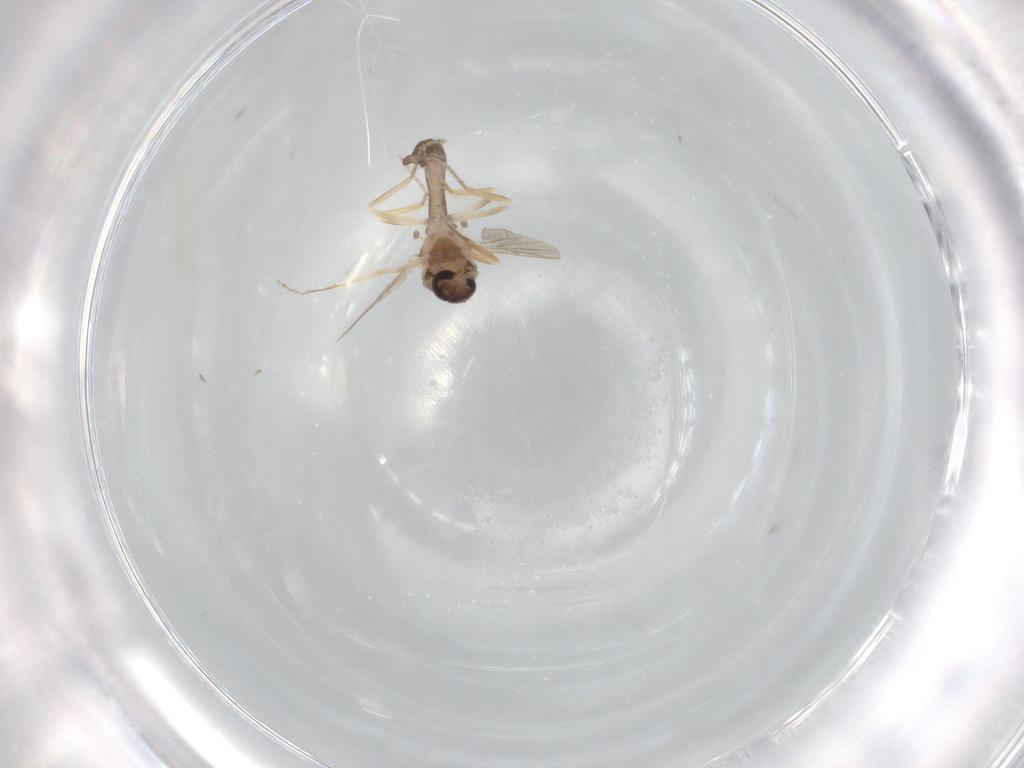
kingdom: Animalia
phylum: Arthropoda
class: Insecta
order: Diptera
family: Ceratopogonidae
